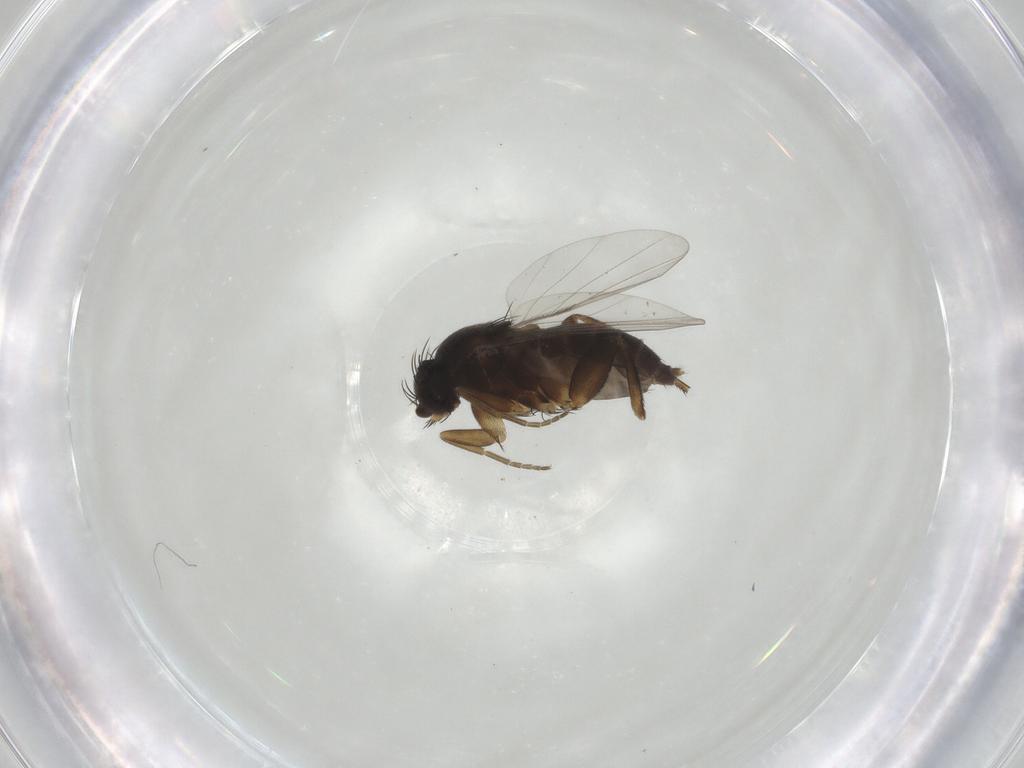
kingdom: Animalia
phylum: Arthropoda
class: Insecta
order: Diptera
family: Phoridae
